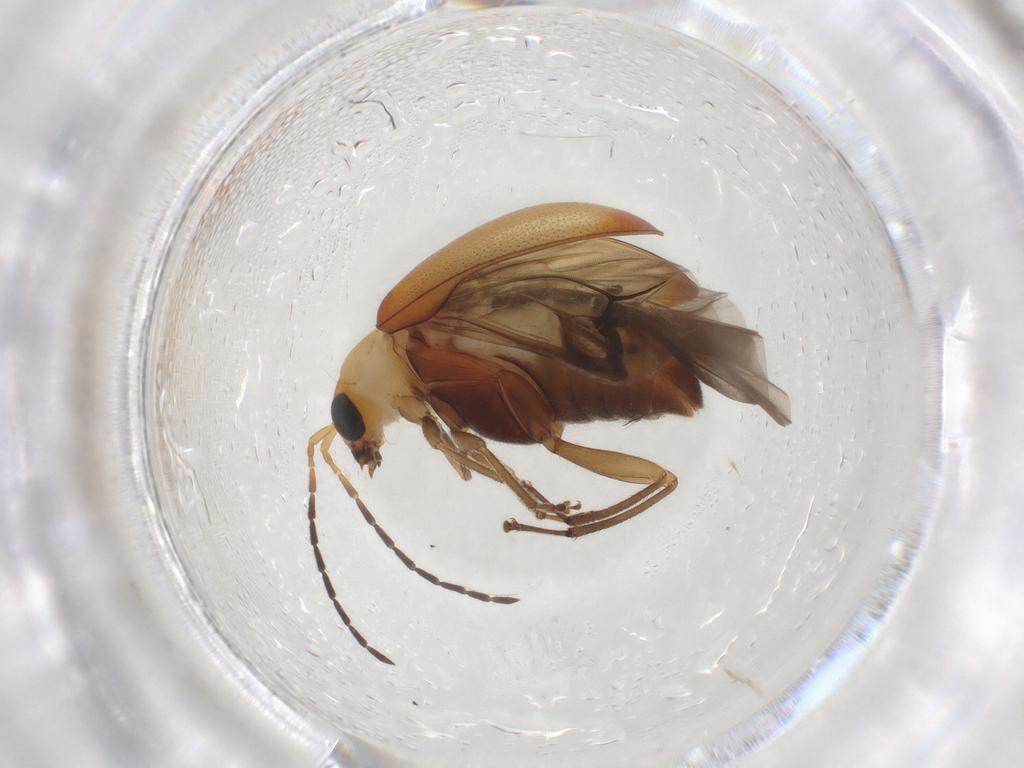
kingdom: Animalia
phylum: Arthropoda
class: Insecta
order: Coleoptera
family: Chrysomelidae
